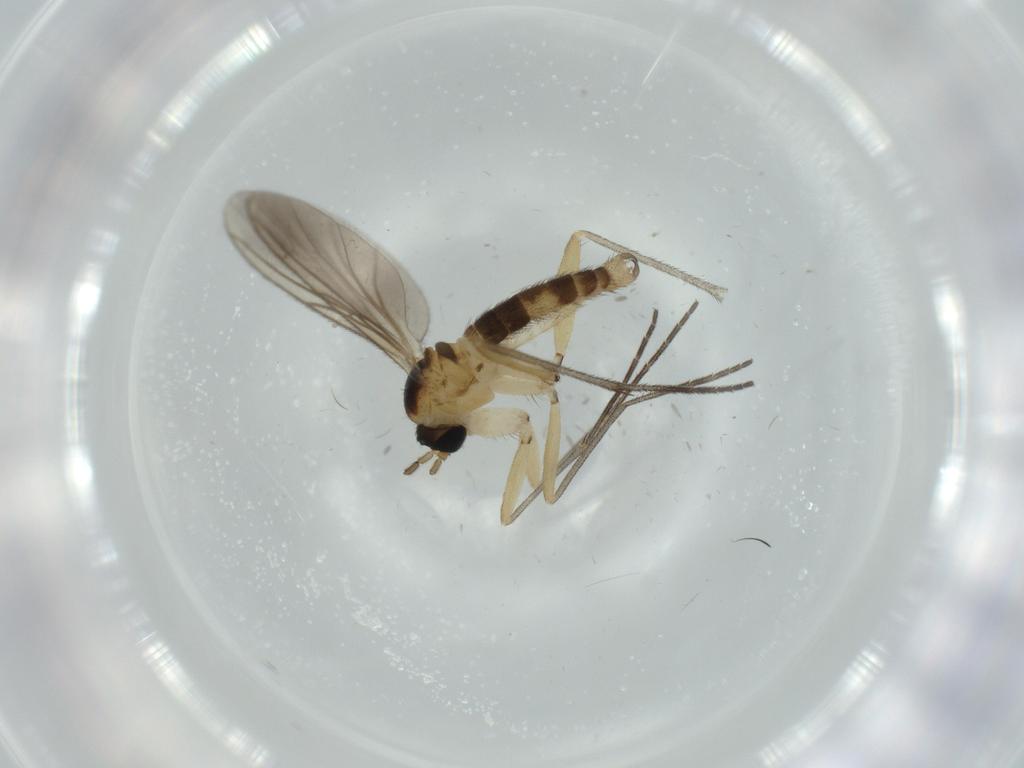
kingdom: Animalia
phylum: Arthropoda
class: Insecta
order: Diptera
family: Sciaridae
